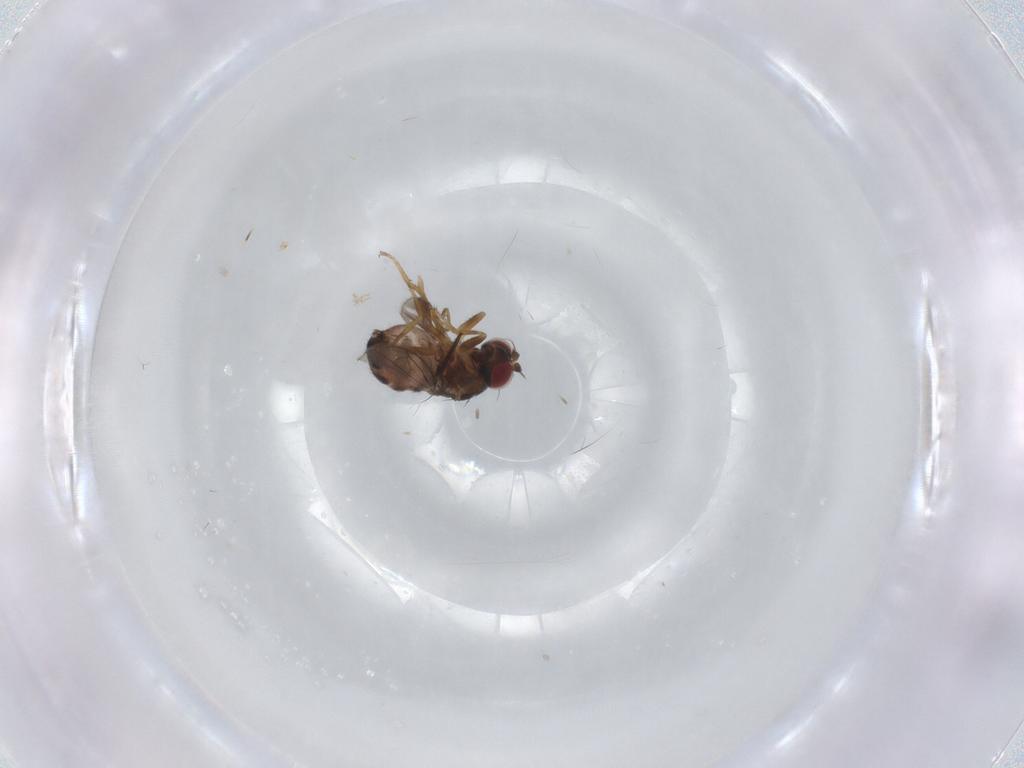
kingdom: Animalia
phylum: Arthropoda
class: Insecta
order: Diptera
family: Ephydridae
